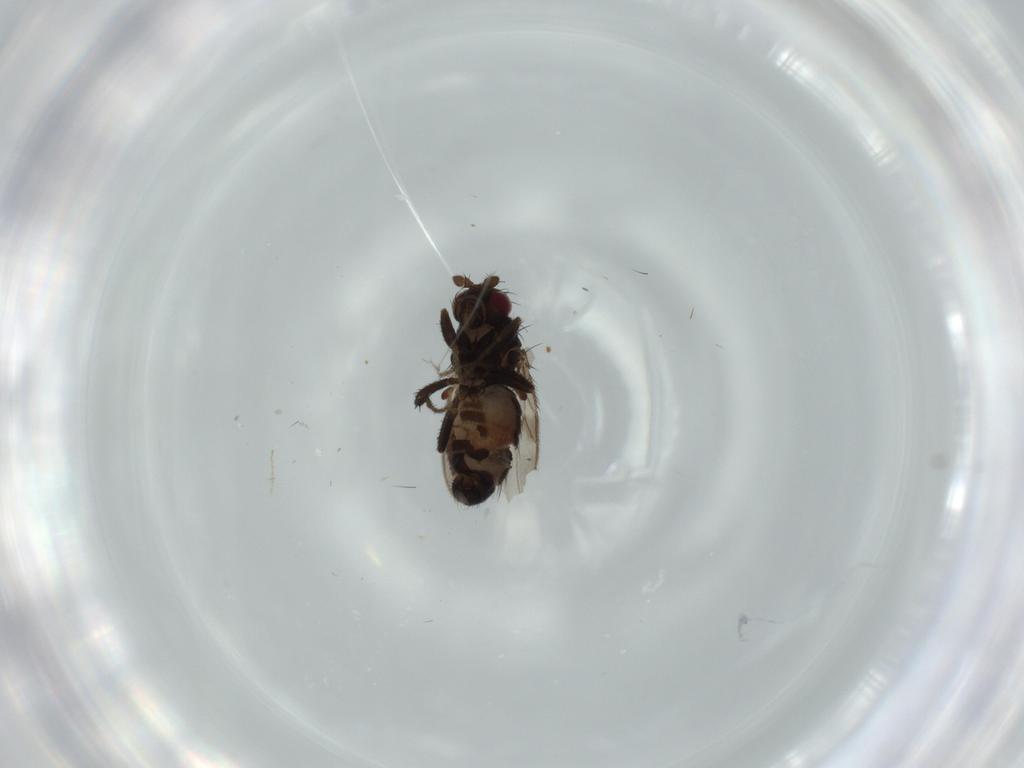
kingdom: Animalia
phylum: Arthropoda
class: Insecta
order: Diptera
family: Sphaeroceridae
